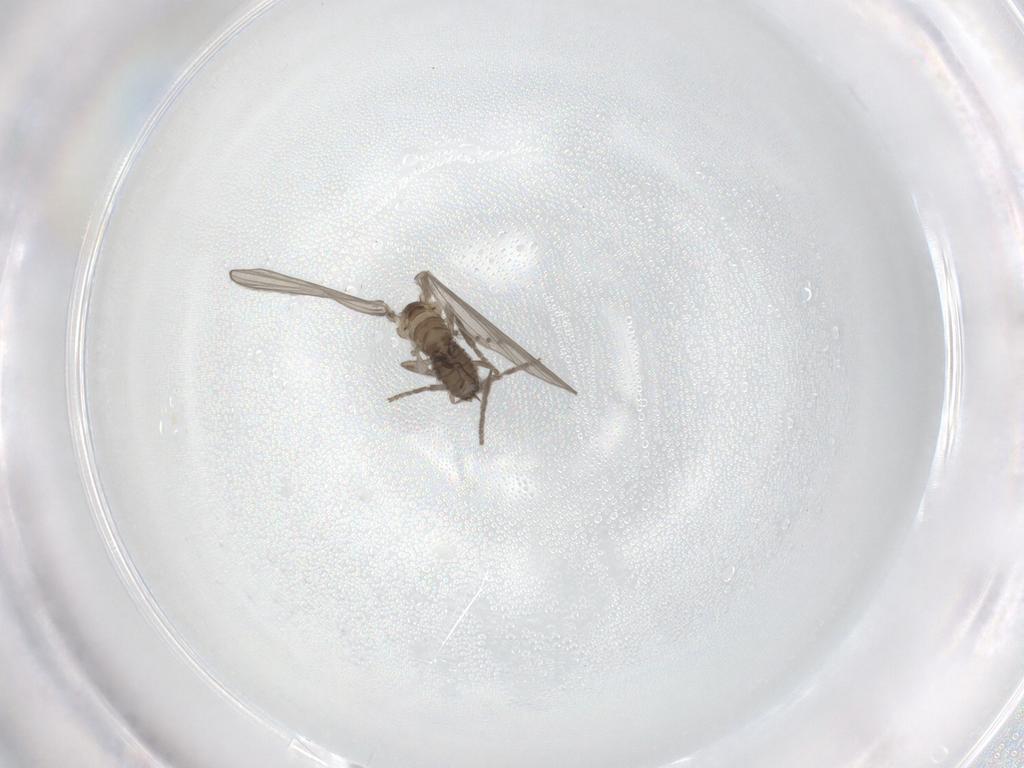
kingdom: Animalia
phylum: Arthropoda
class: Insecta
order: Diptera
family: Psychodidae
